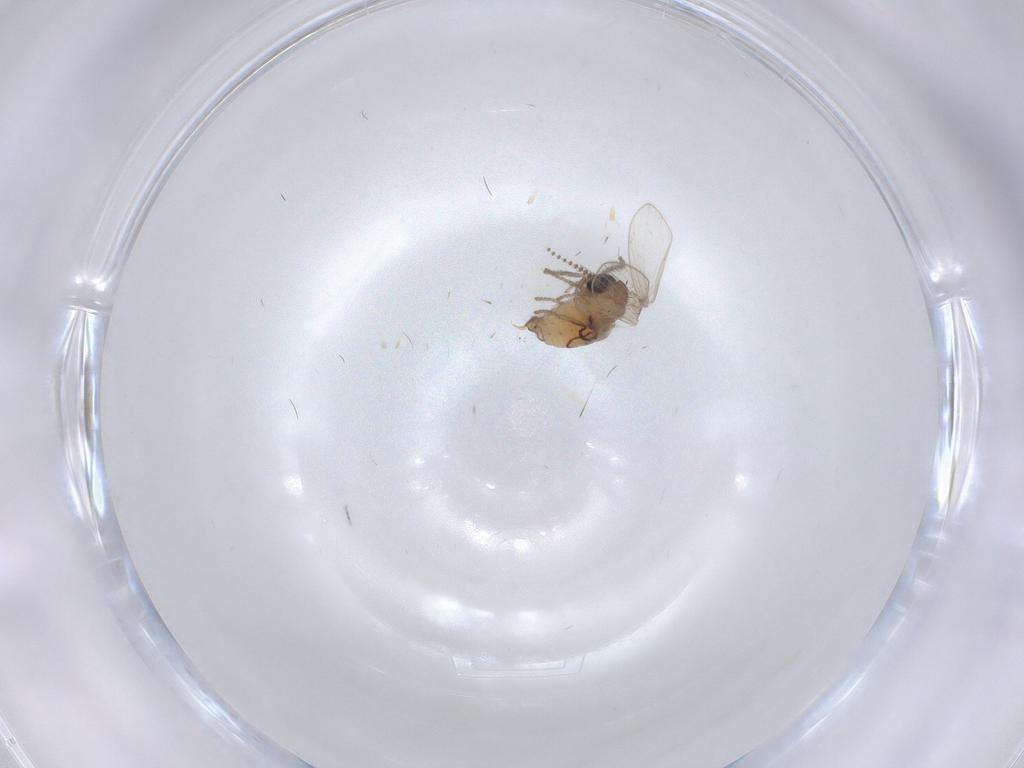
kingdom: Animalia
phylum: Arthropoda
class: Insecta
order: Diptera
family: Psychodidae
